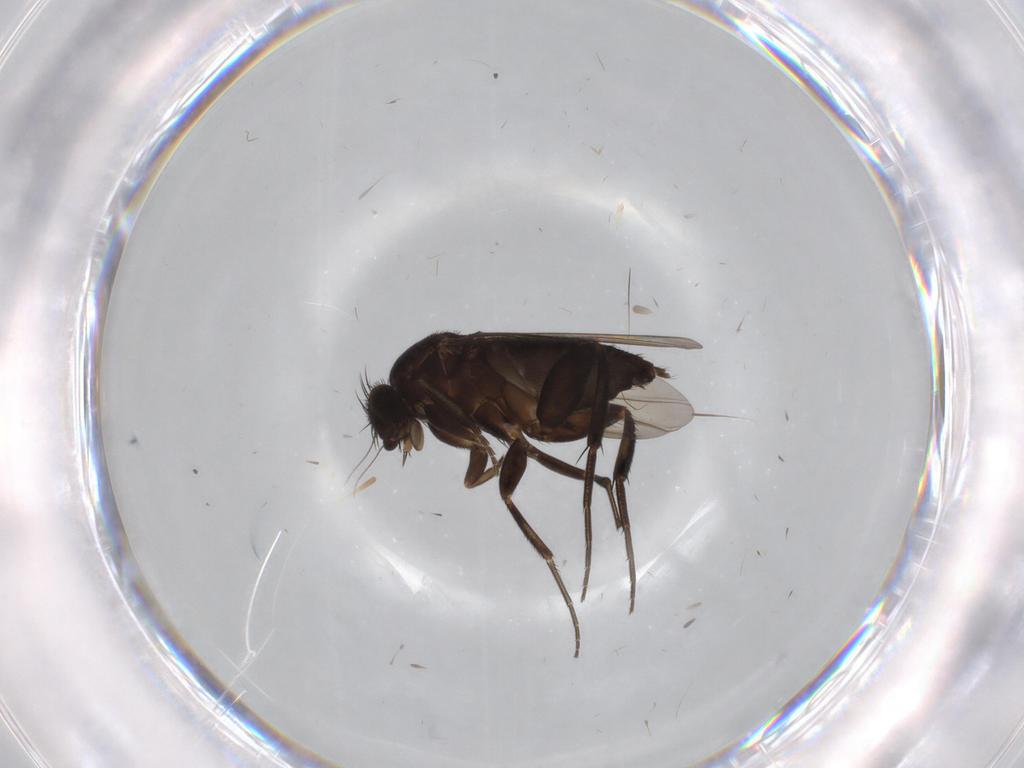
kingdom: Animalia
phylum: Arthropoda
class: Insecta
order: Diptera
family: Phoridae
